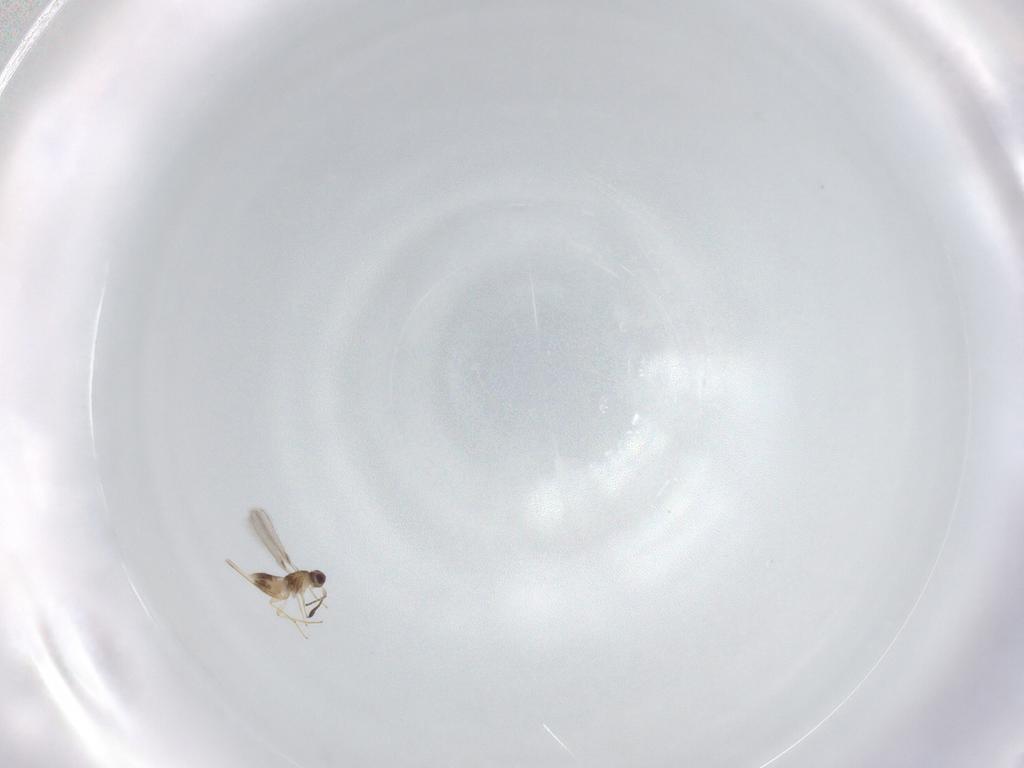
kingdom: Animalia
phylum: Arthropoda
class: Insecta
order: Hymenoptera
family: Mymaridae
